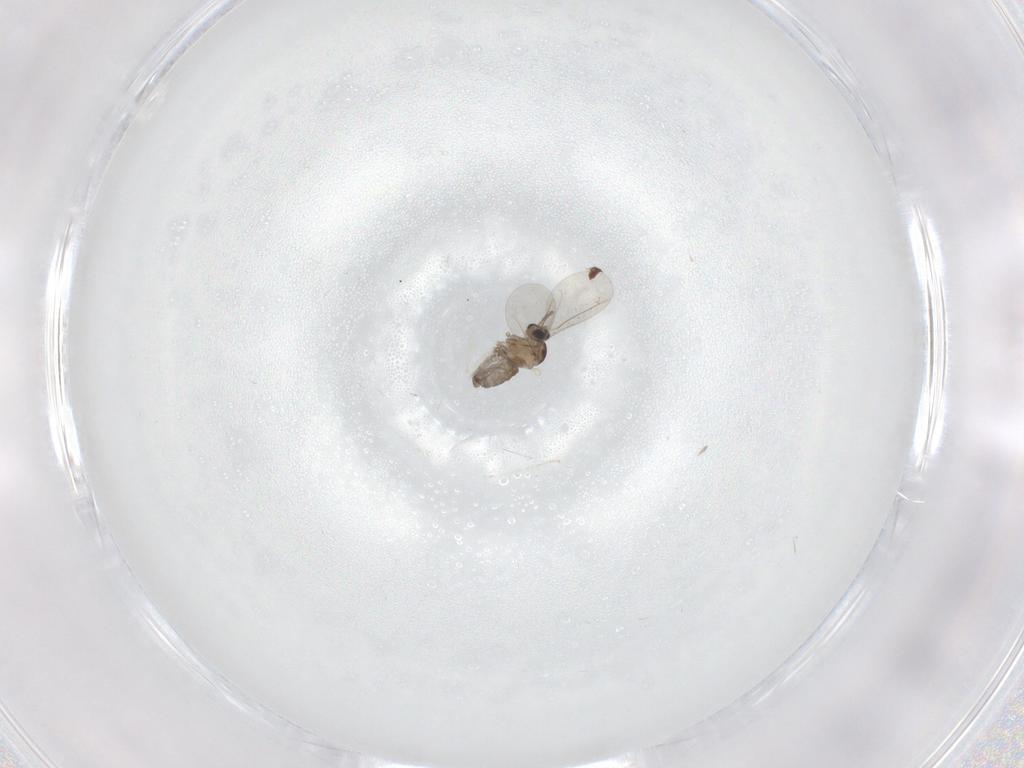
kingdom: Animalia
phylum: Arthropoda
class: Insecta
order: Diptera
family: Cecidomyiidae
